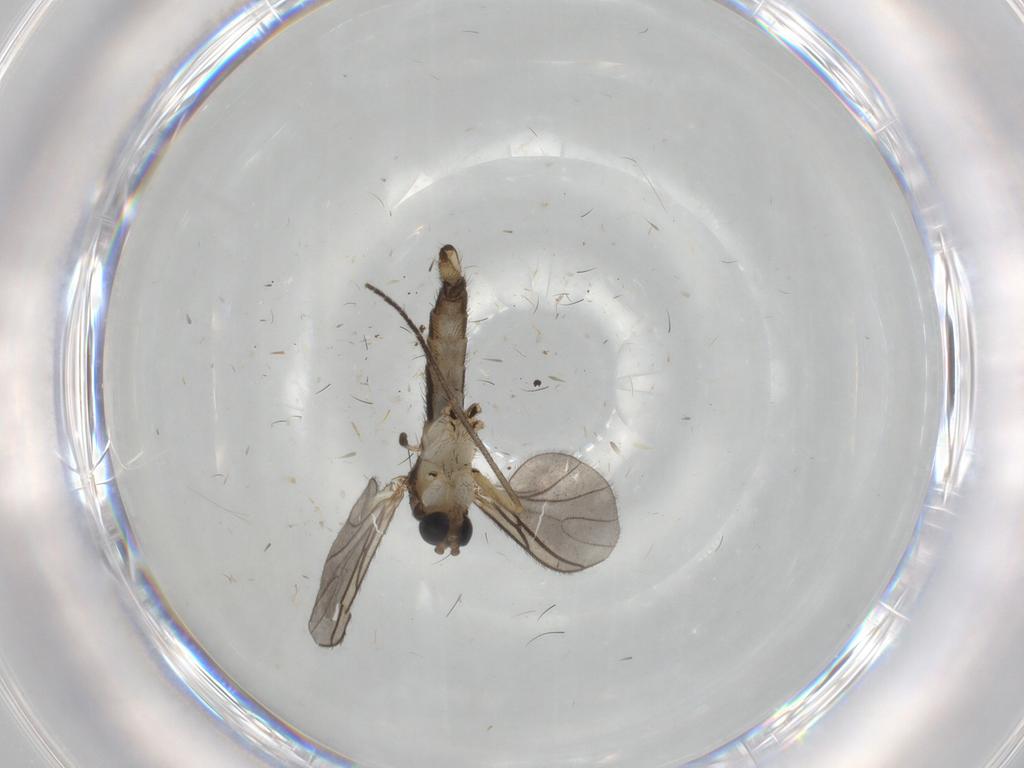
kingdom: Animalia
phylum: Arthropoda
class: Insecta
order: Diptera
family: Sciaridae
